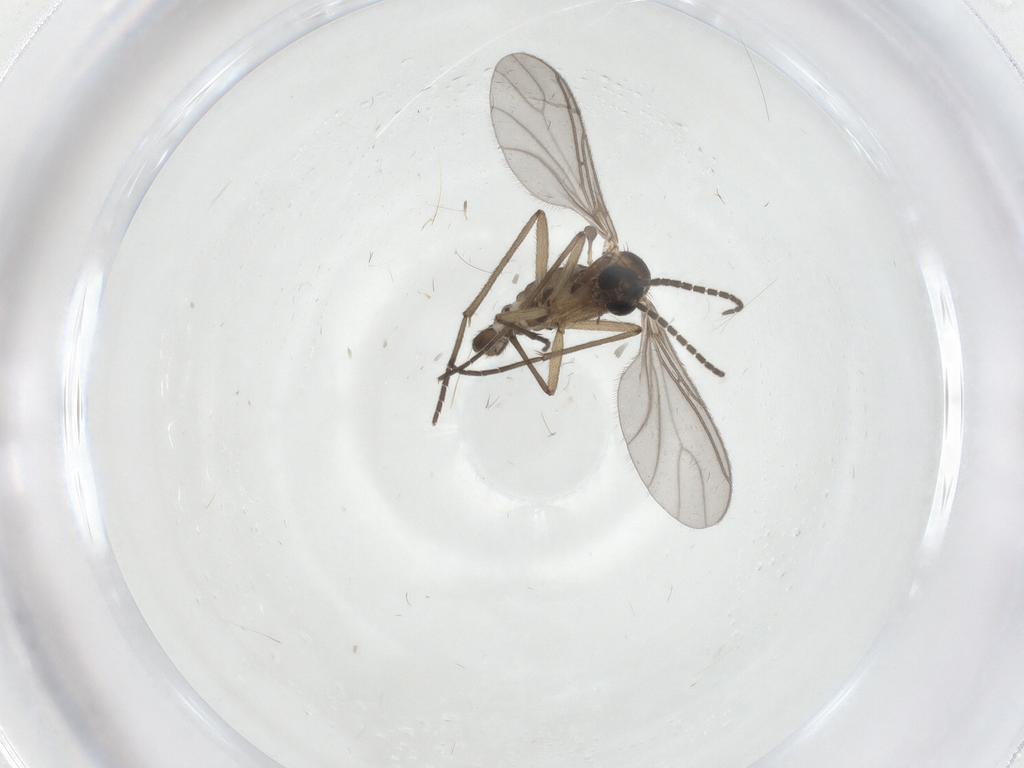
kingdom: Animalia
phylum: Arthropoda
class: Insecta
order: Diptera
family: Sciaridae
